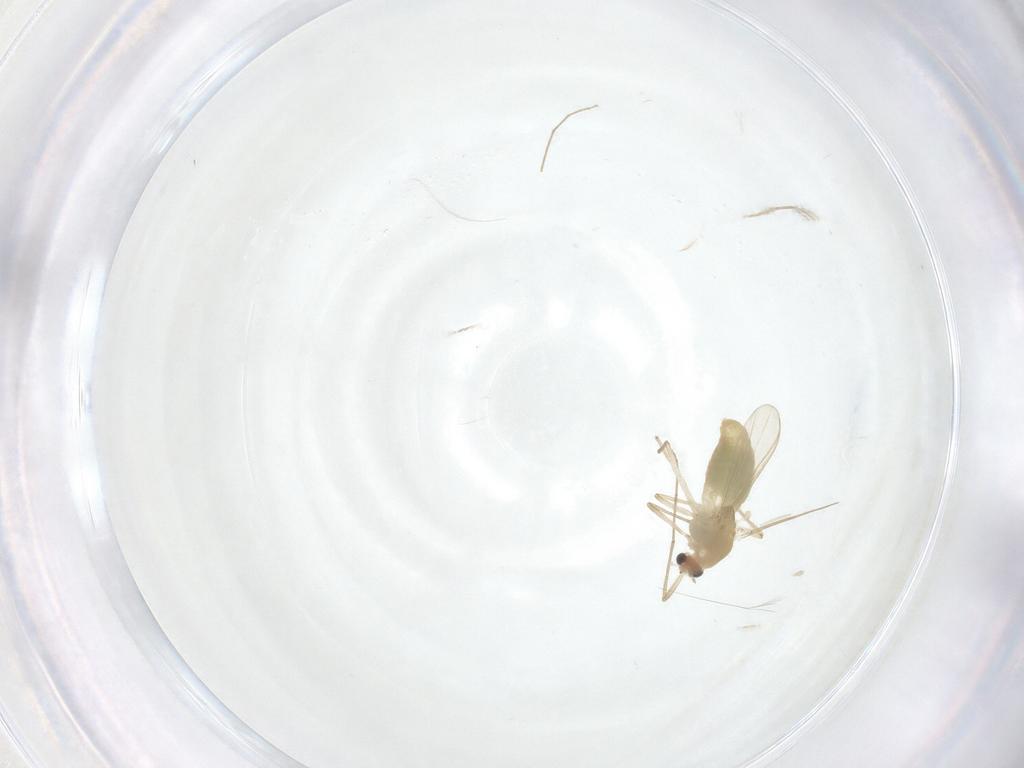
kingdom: Animalia
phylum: Arthropoda
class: Insecta
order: Diptera
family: Chironomidae
